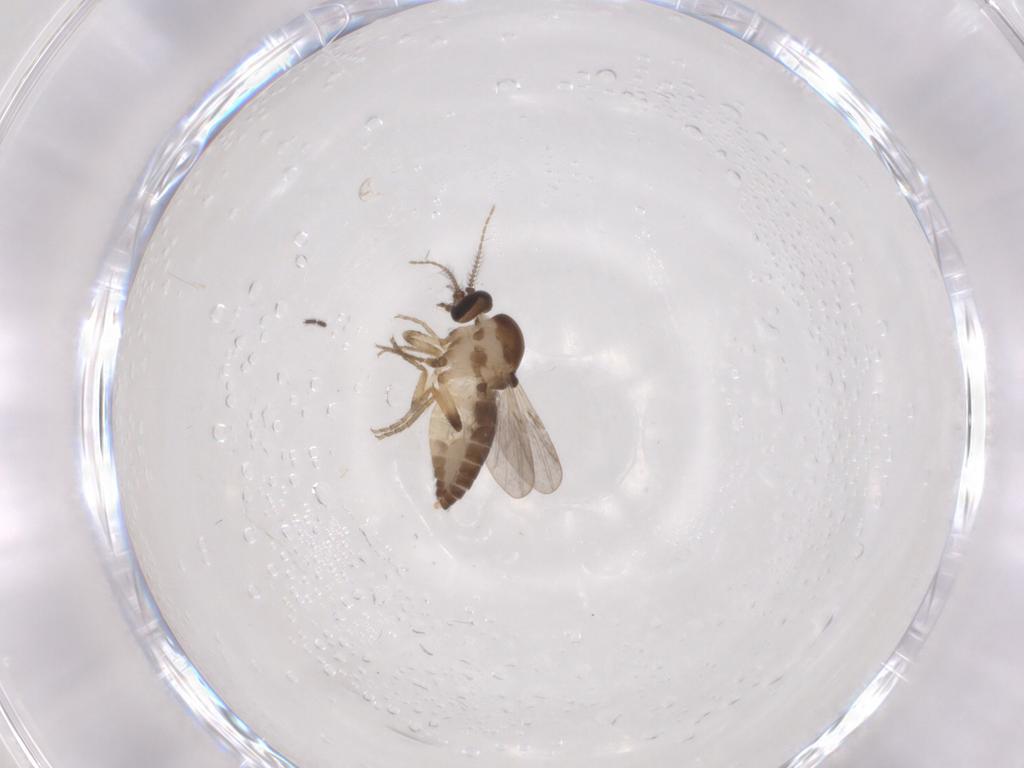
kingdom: Animalia
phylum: Arthropoda
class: Insecta
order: Diptera
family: Ceratopogonidae
